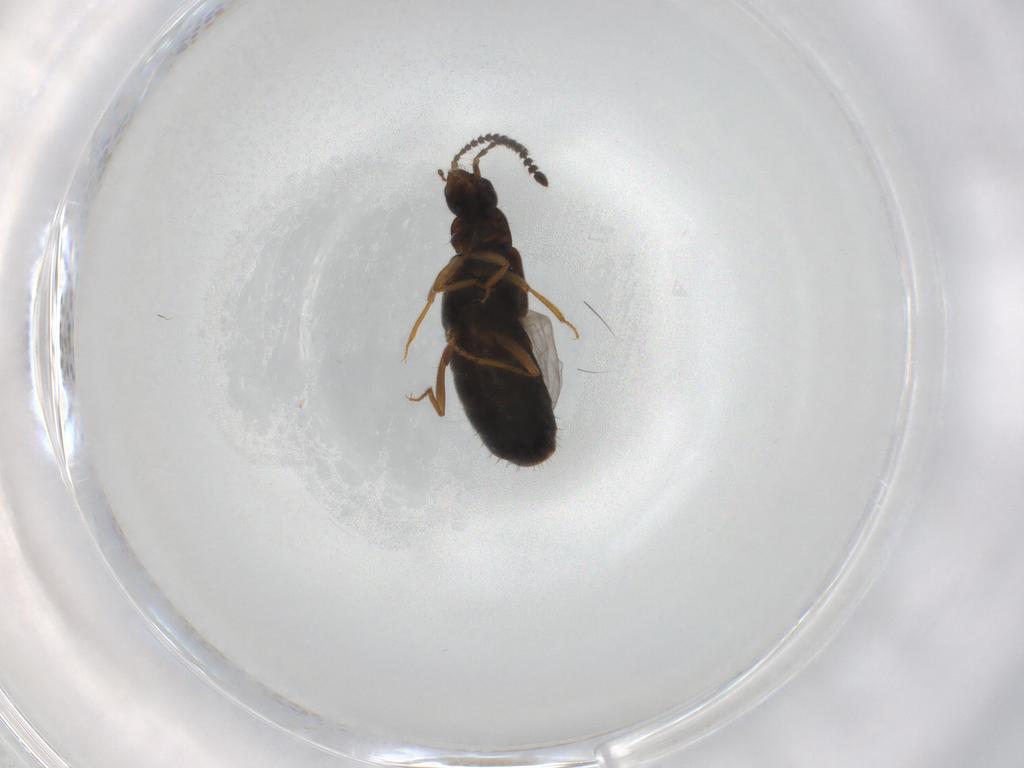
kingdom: Animalia
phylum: Arthropoda
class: Insecta
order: Coleoptera
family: Staphylinidae
